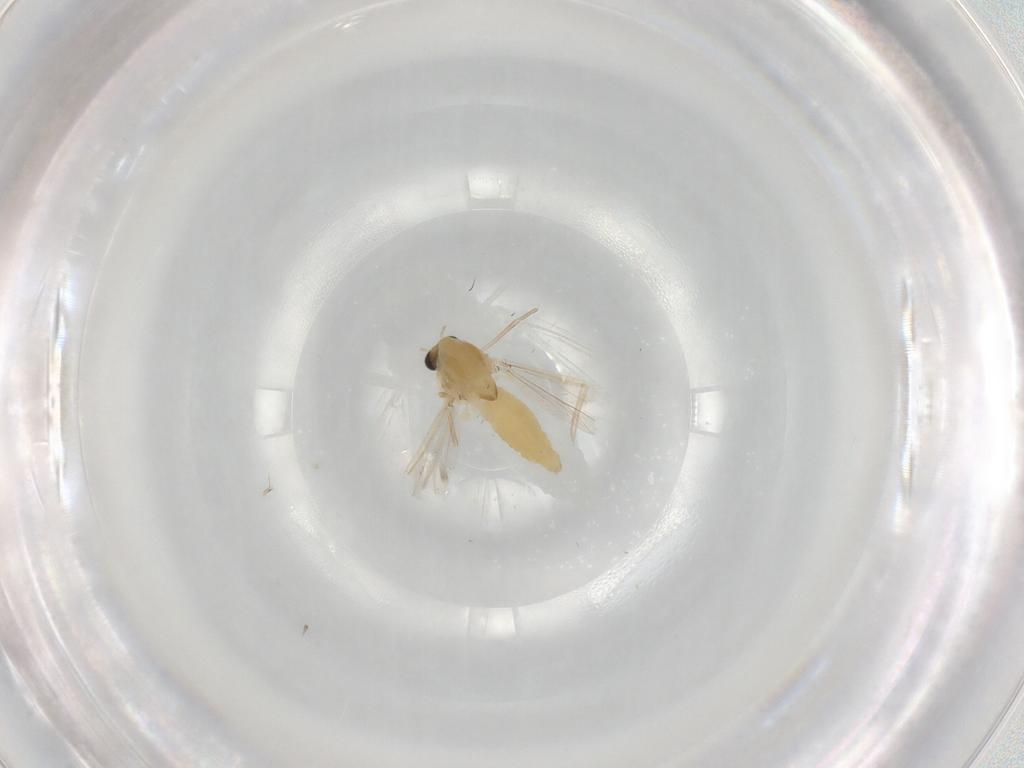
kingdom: Animalia
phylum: Arthropoda
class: Insecta
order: Diptera
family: Chironomidae
